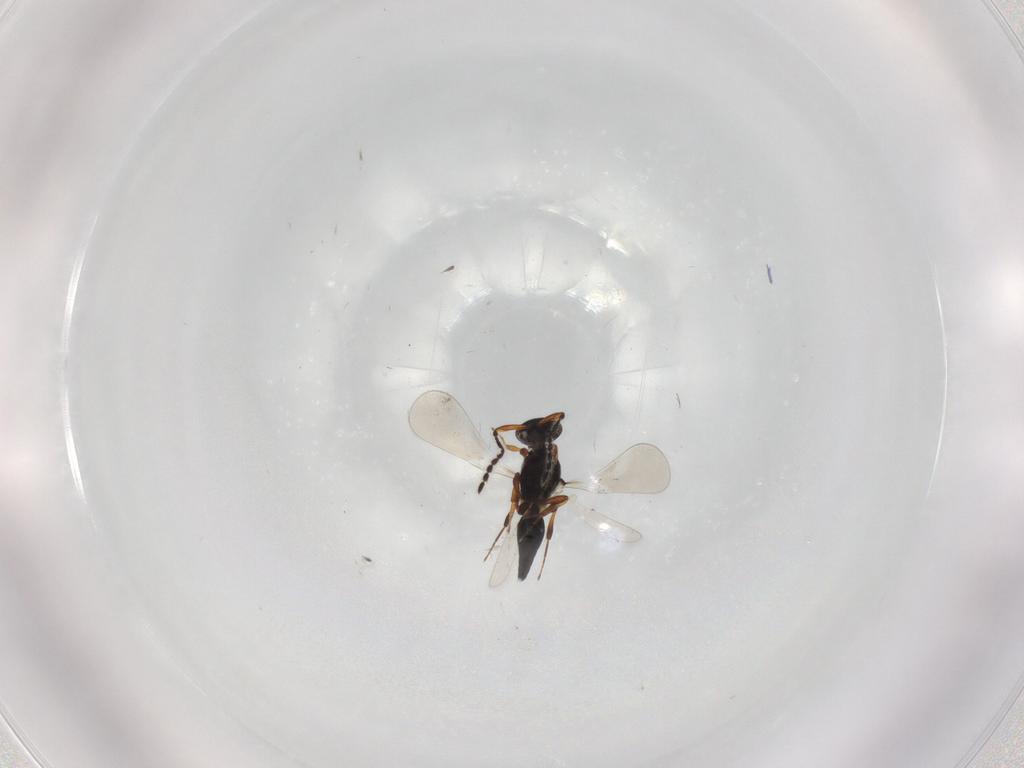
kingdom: Animalia
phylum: Arthropoda
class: Insecta
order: Hymenoptera
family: Platygastridae
